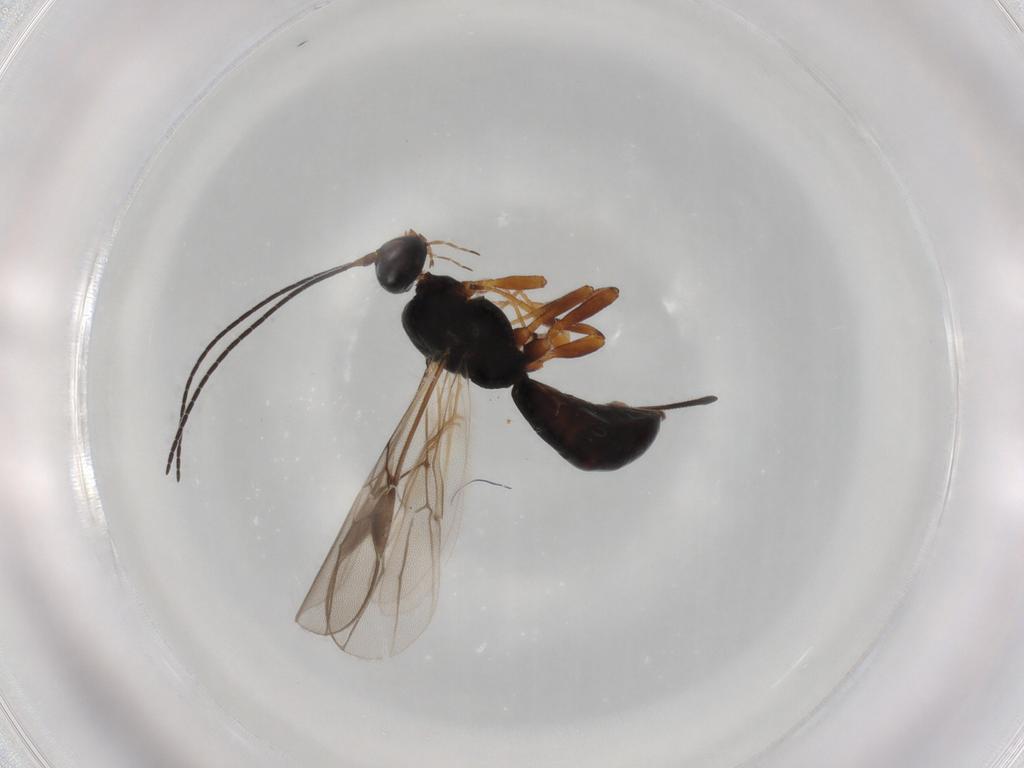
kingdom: Animalia
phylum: Arthropoda
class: Insecta
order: Hymenoptera
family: Braconidae
